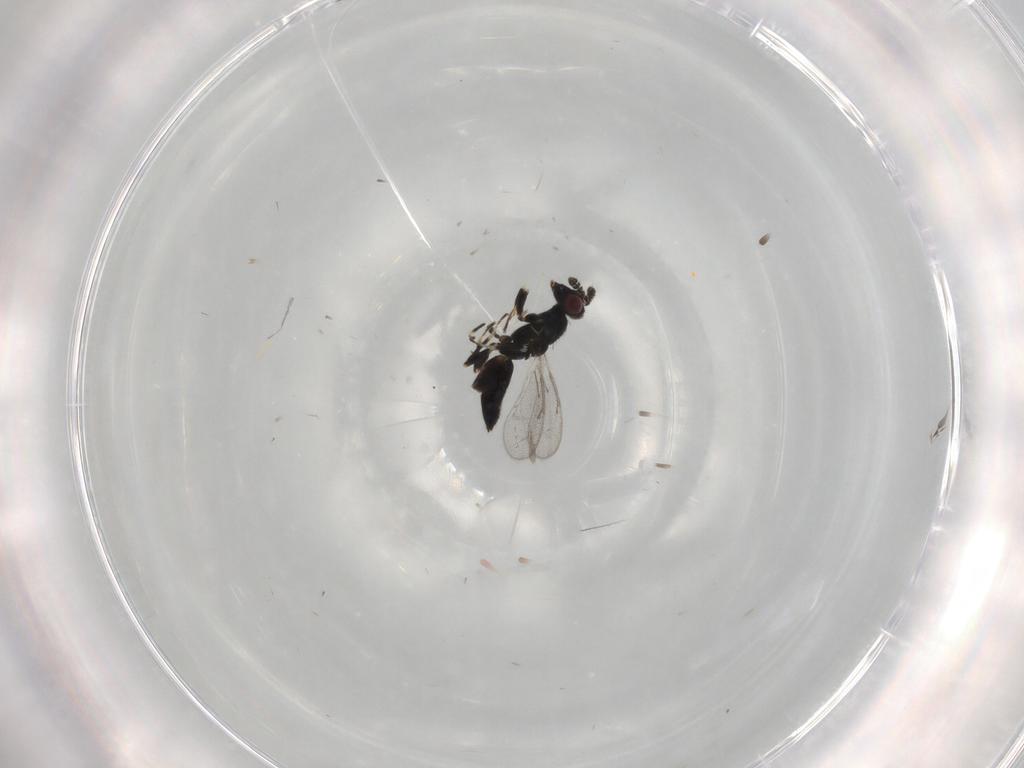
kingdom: Animalia
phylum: Arthropoda
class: Insecta
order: Hymenoptera
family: Eulophidae
